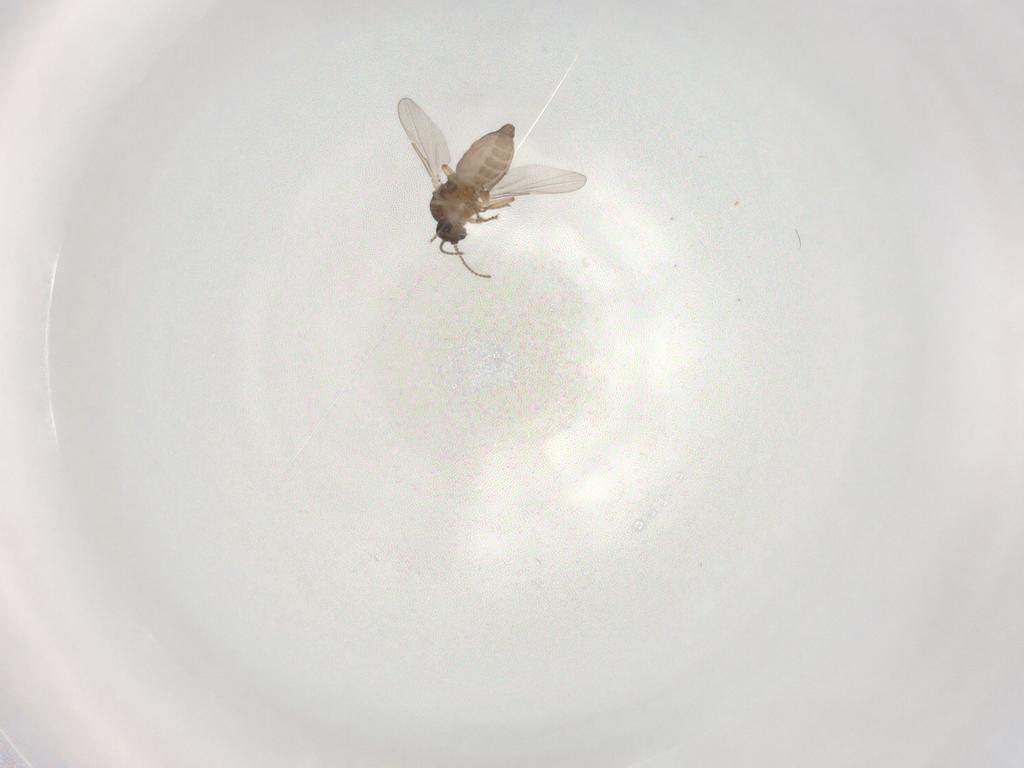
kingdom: Animalia
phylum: Arthropoda
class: Insecta
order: Diptera
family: Ceratopogonidae
